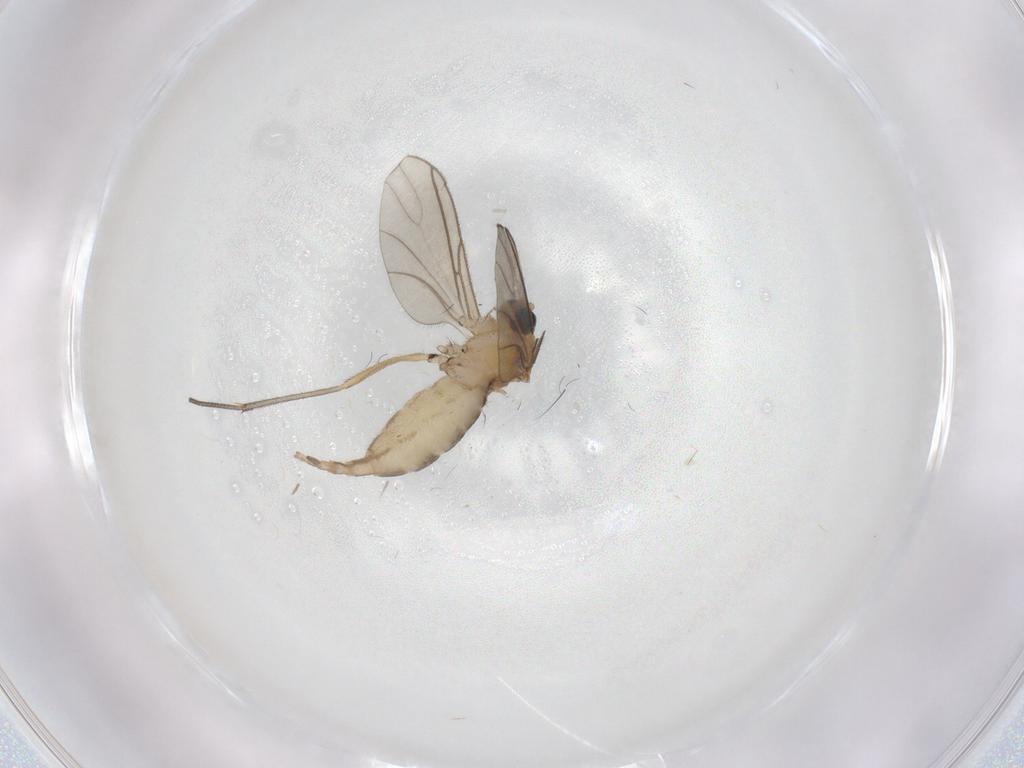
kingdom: Animalia
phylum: Arthropoda
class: Insecta
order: Diptera
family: Sciaridae
